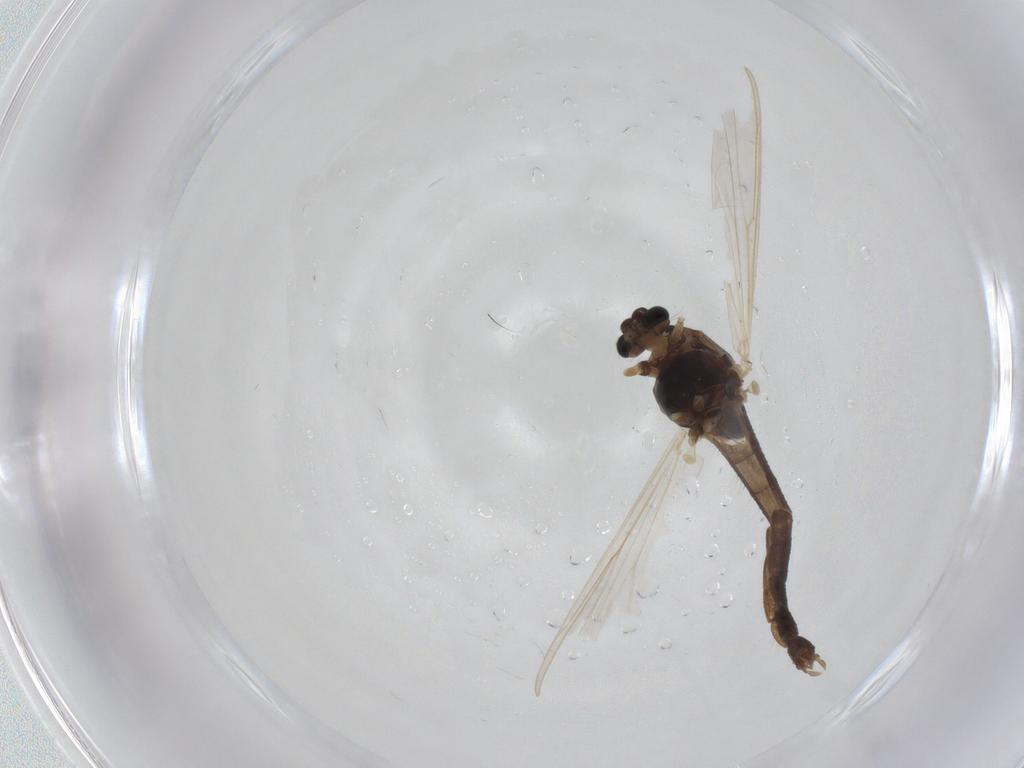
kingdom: Animalia
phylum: Arthropoda
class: Insecta
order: Diptera
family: Chironomidae
